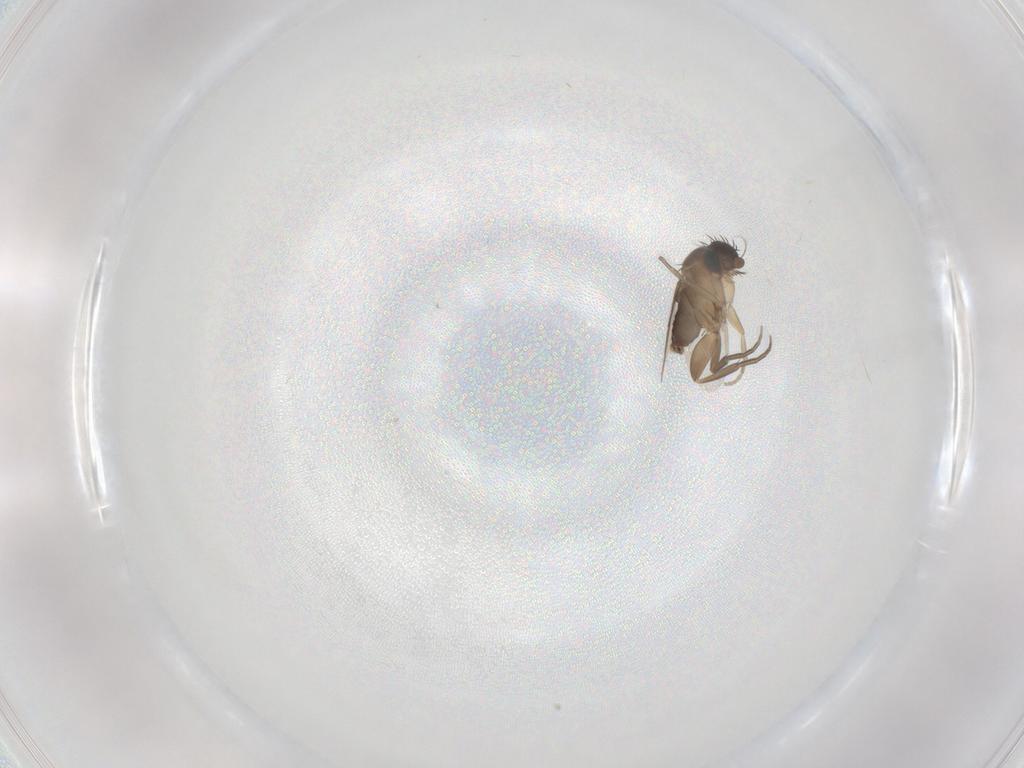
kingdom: Animalia
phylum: Arthropoda
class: Insecta
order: Diptera
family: Phoridae
